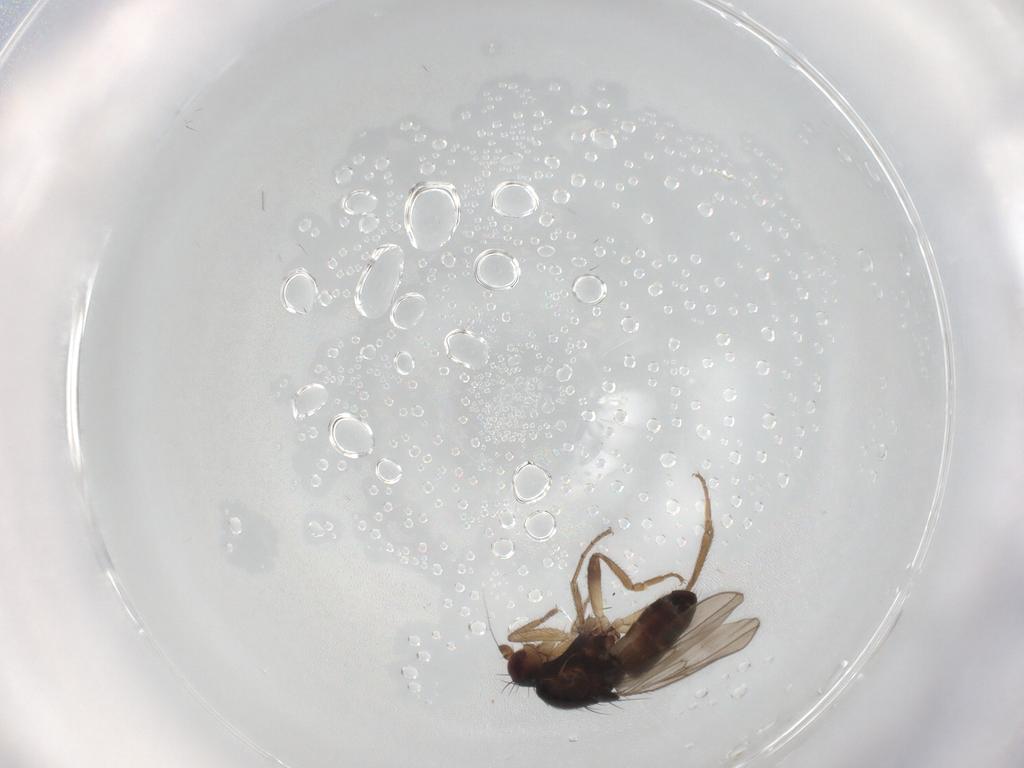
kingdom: Animalia
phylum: Arthropoda
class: Insecta
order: Diptera
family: Sphaeroceridae
